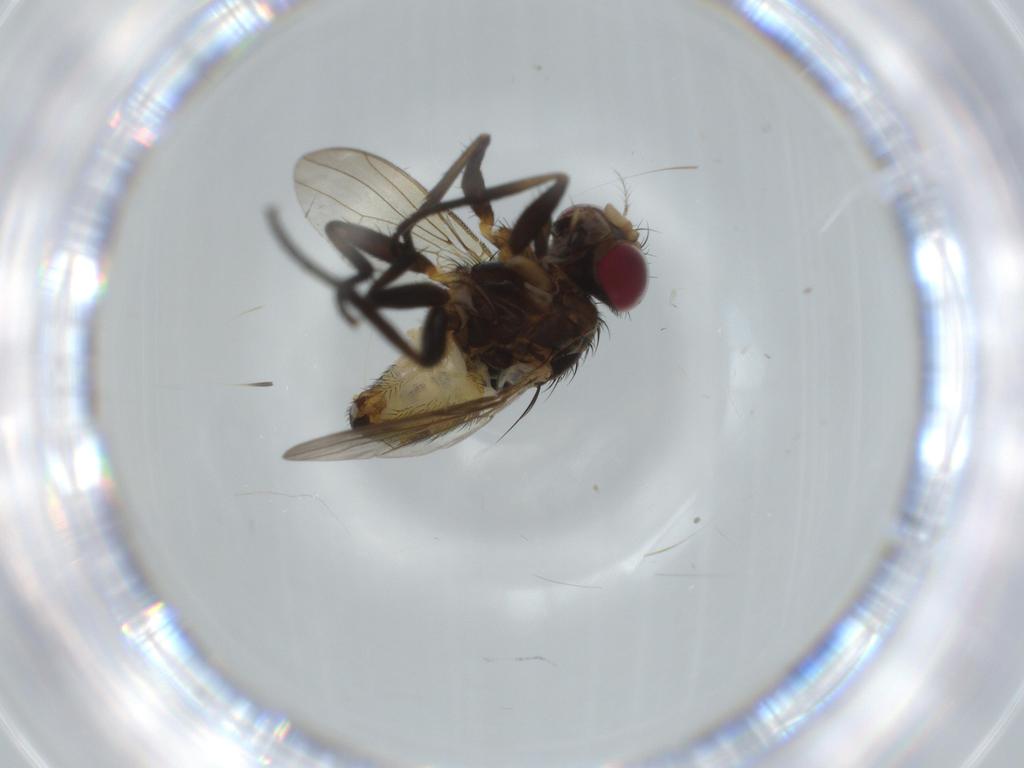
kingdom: Animalia
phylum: Arthropoda
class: Insecta
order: Diptera
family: Anthomyiidae
